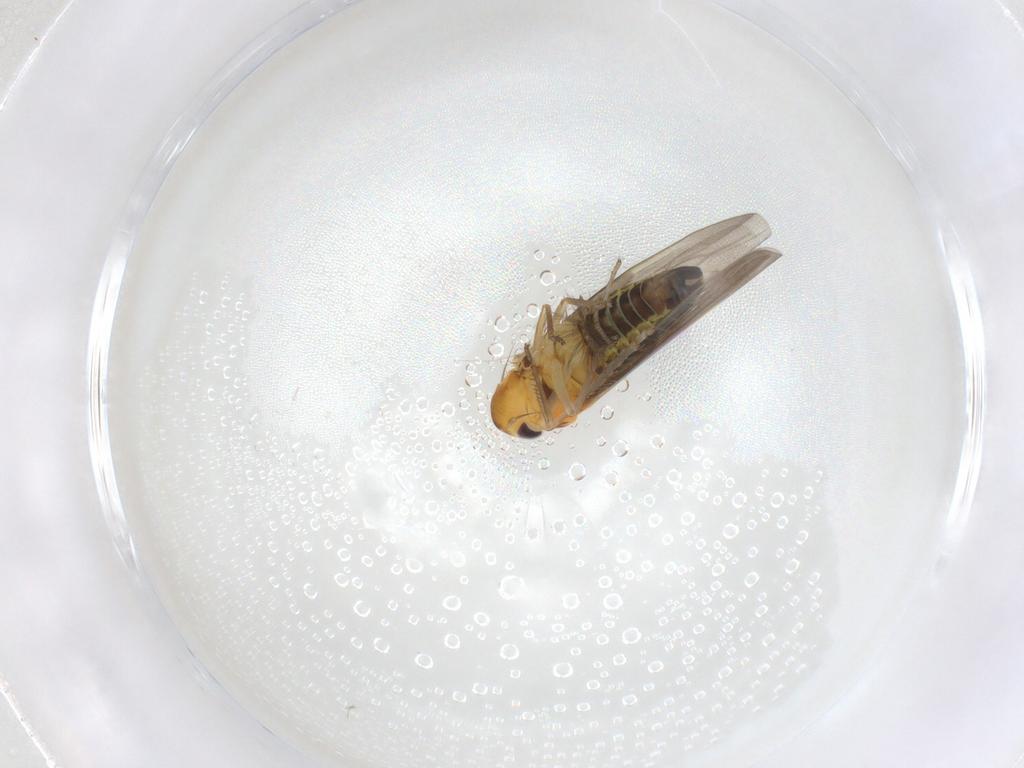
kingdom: Animalia
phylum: Arthropoda
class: Insecta
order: Hemiptera
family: Cicadellidae
